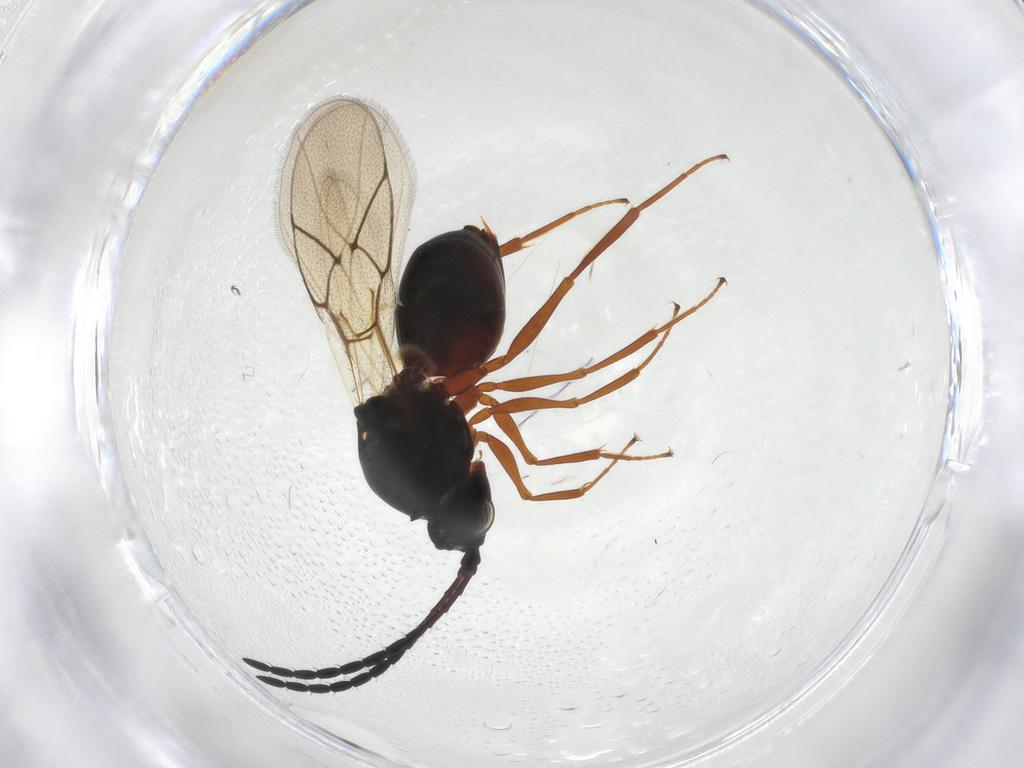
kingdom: Animalia
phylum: Arthropoda
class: Insecta
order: Hymenoptera
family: Figitidae
